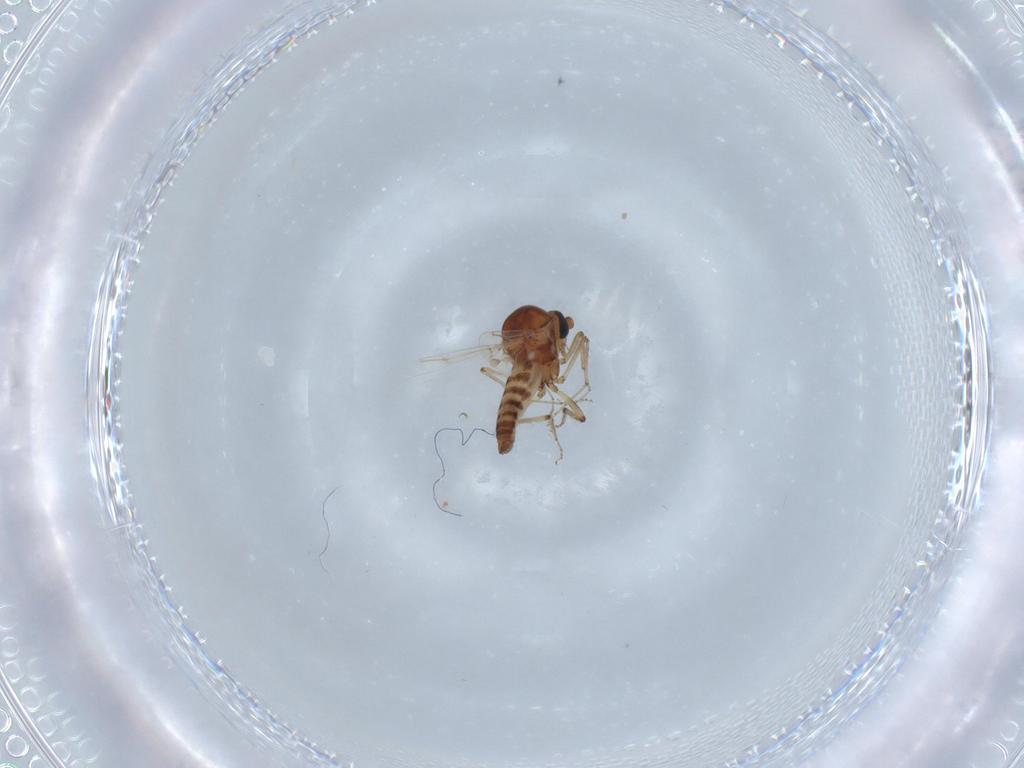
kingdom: Animalia
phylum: Arthropoda
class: Insecta
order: Diptera
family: Ceratopogonidae
